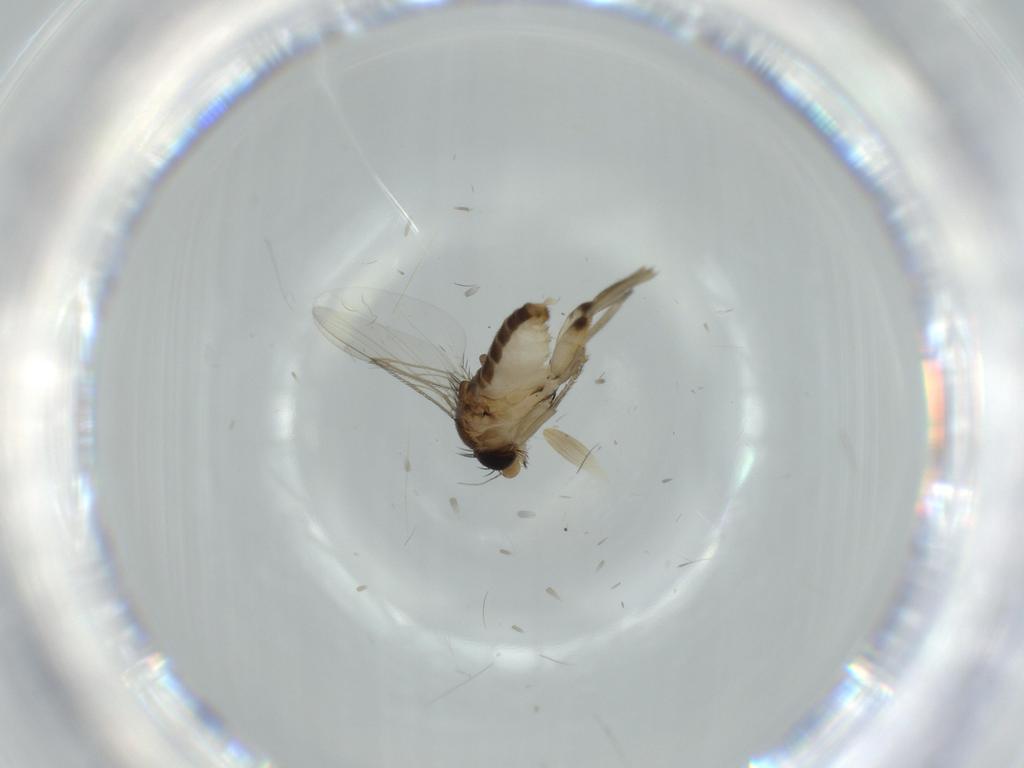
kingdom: Animalia
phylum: Arthropoda
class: Insecta
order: Diptera
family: Phoridae
